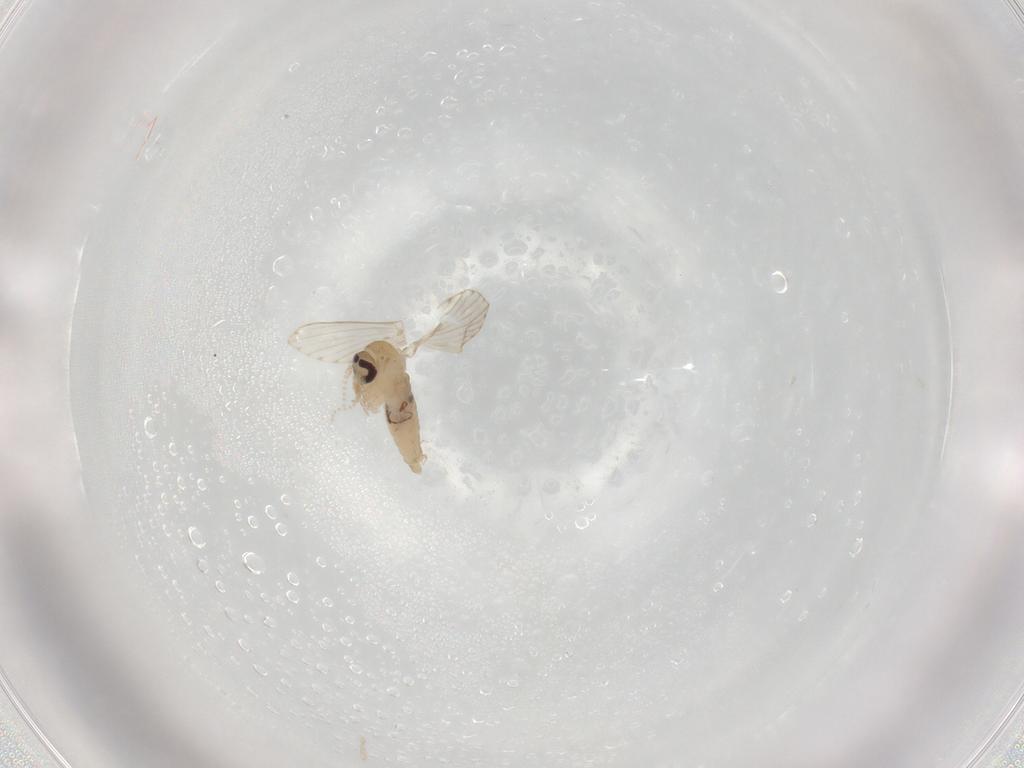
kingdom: Animalia
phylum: Arthropoda
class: Insecta
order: Diptera
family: Psychodidae
